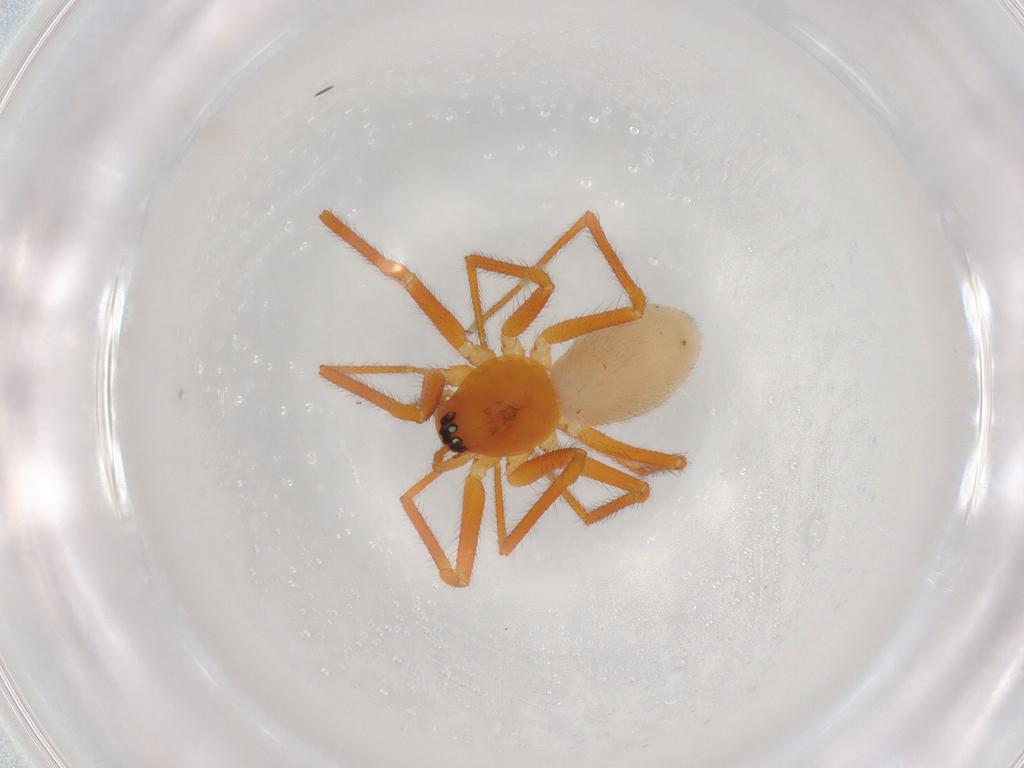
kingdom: Animalia
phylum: Arthropoda
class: Arachnida
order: Araneae
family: Linyphiidae
